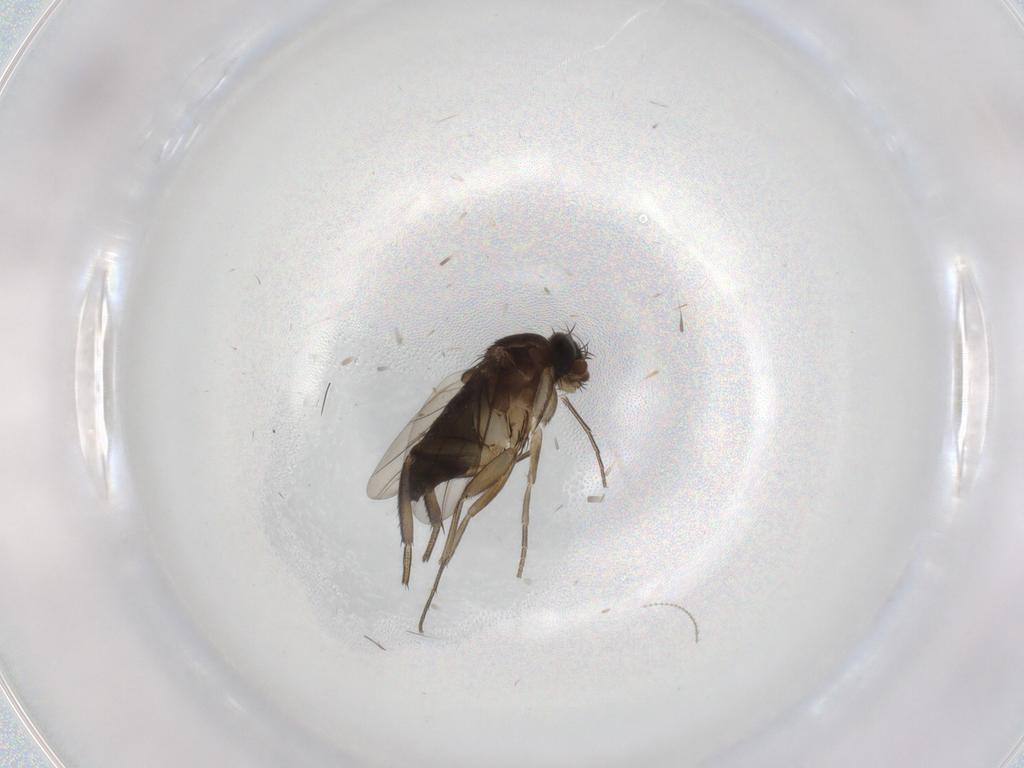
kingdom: Animalia
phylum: Arthropoda
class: Insecta
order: Diptera
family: Phoridae
